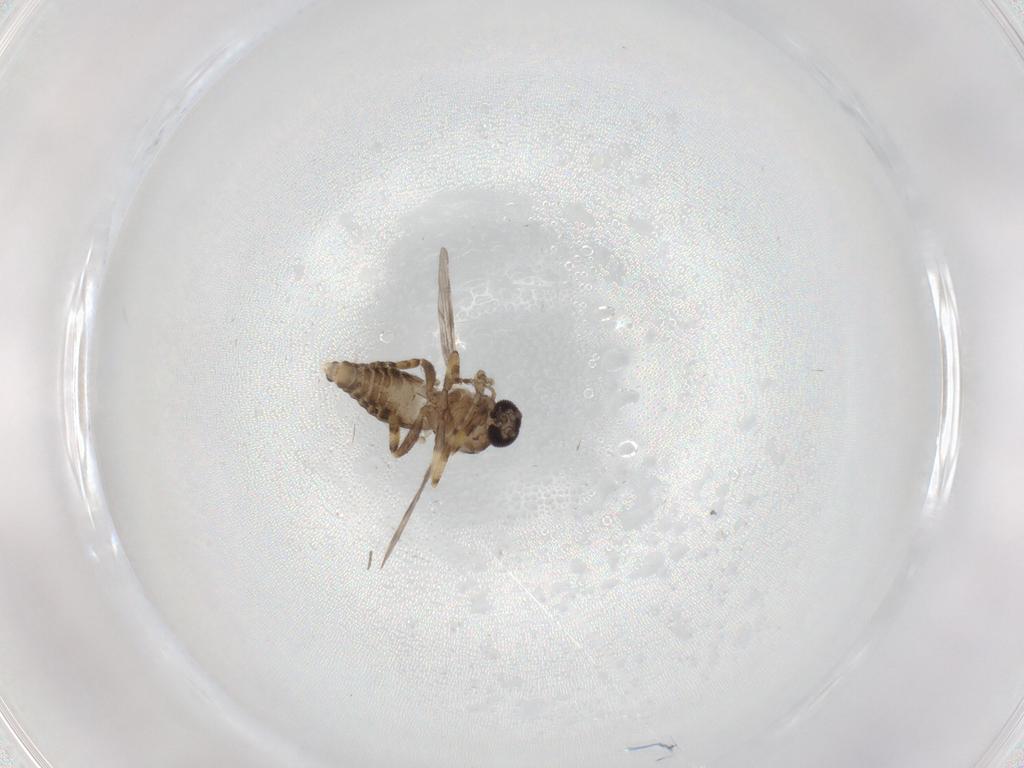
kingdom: Animalia
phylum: Arthropoda
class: Insecta
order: Diptera
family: Ceratopogonidae
